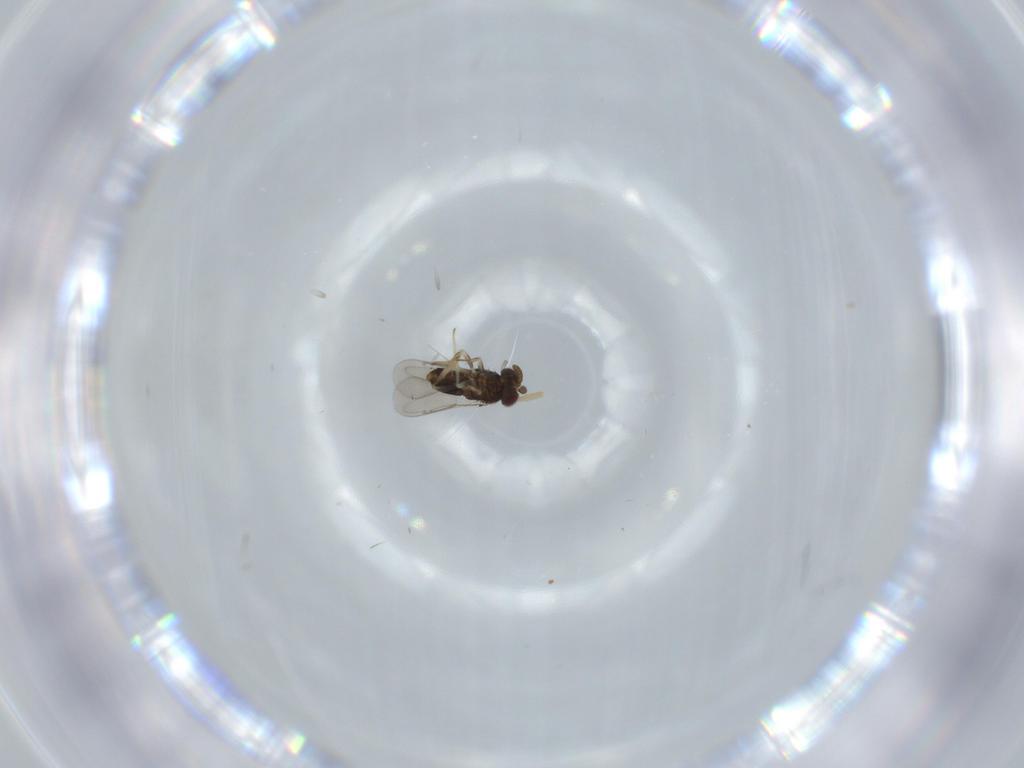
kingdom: Animalia
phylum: Arthropoda
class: Insecta
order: Hymenoptera
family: Aphelinidae
